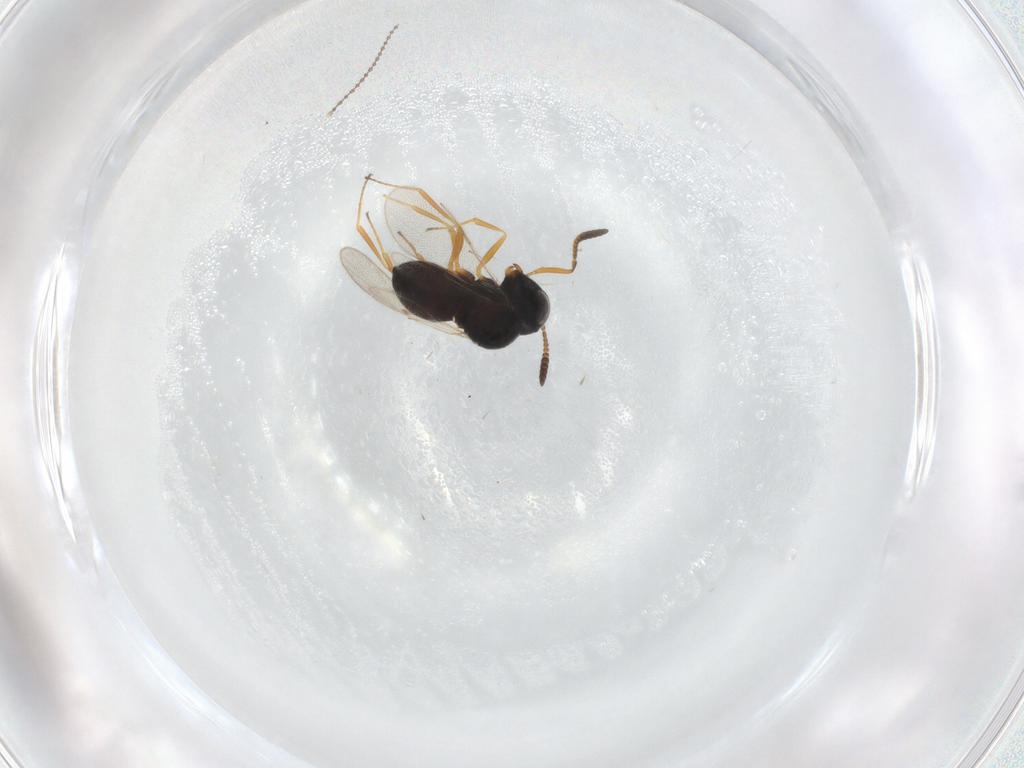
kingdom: Animalia
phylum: Arthropoda
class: Insecta
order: Hymenoptera
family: Scelionidae
